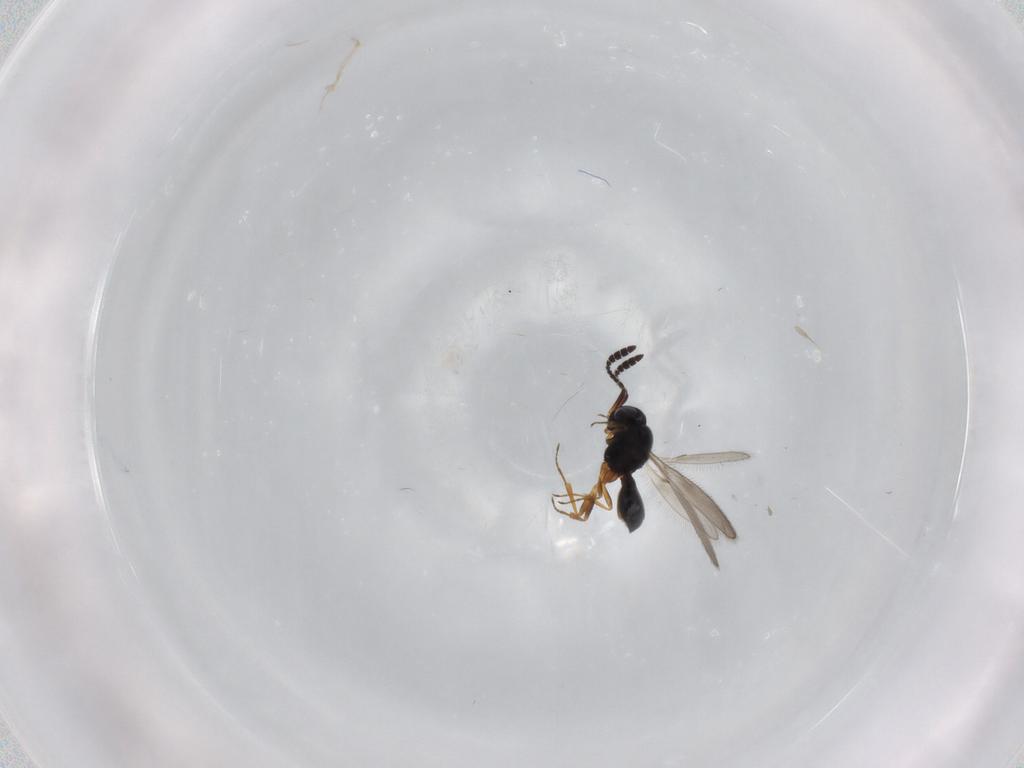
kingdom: Animalia
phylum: Arthropoda
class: Insecta
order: Hymenoptera
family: Scelionidae
